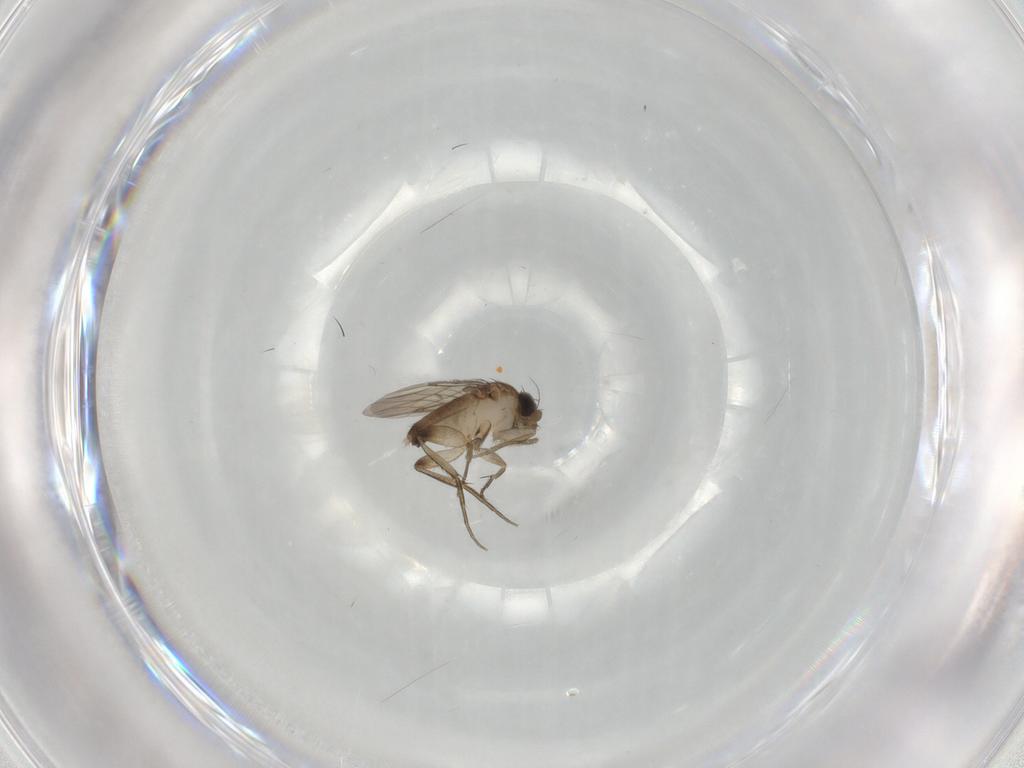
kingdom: Animalia
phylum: Arthropoda
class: Insecta
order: Diptera
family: Phoridae
